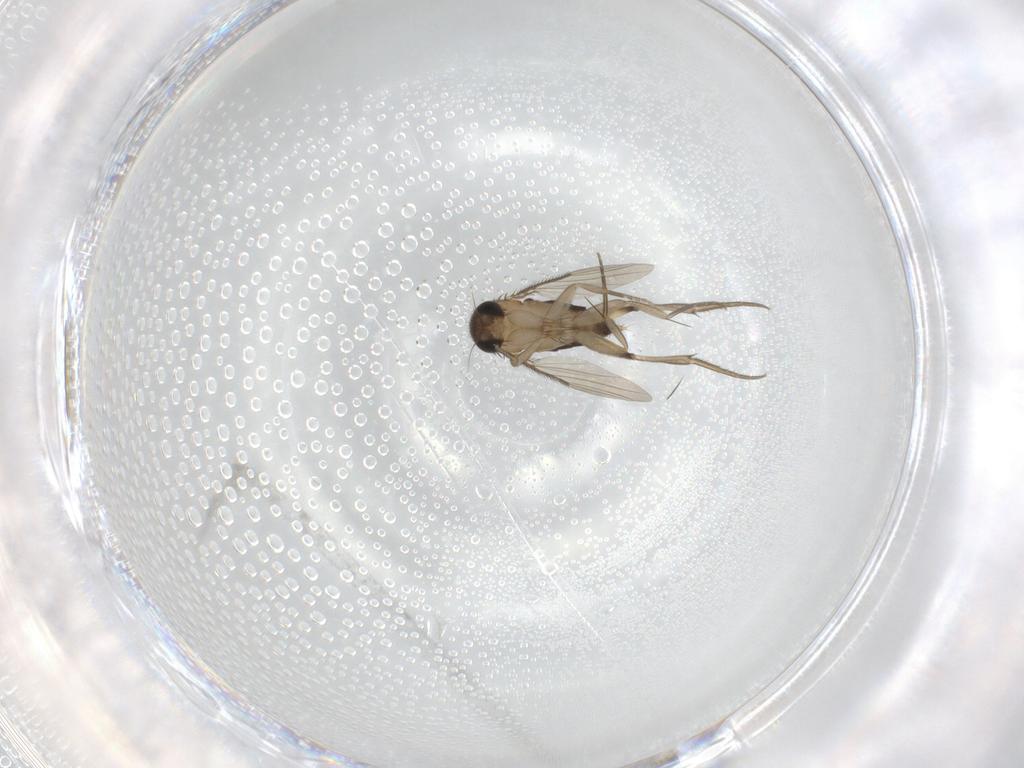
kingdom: Animalia
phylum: Arthropoda
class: Insecta
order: Diptera
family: Phoridae
